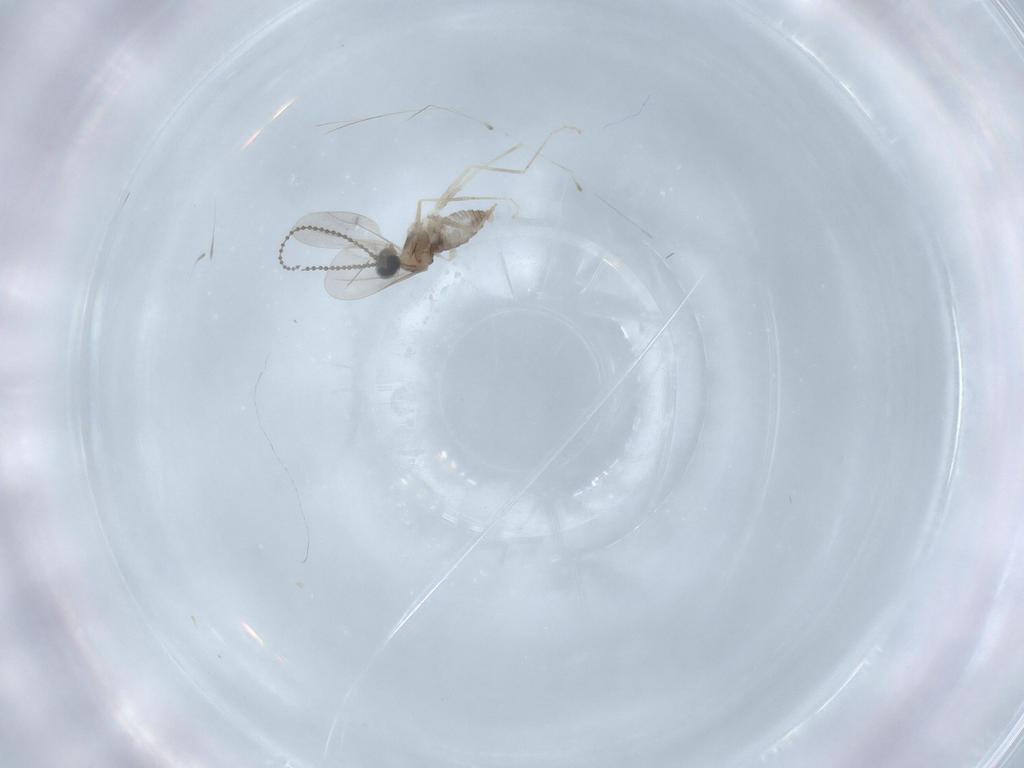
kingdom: Animalia
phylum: Arthropoda
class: Insecta
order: Diptera
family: Cecidomyiidae
